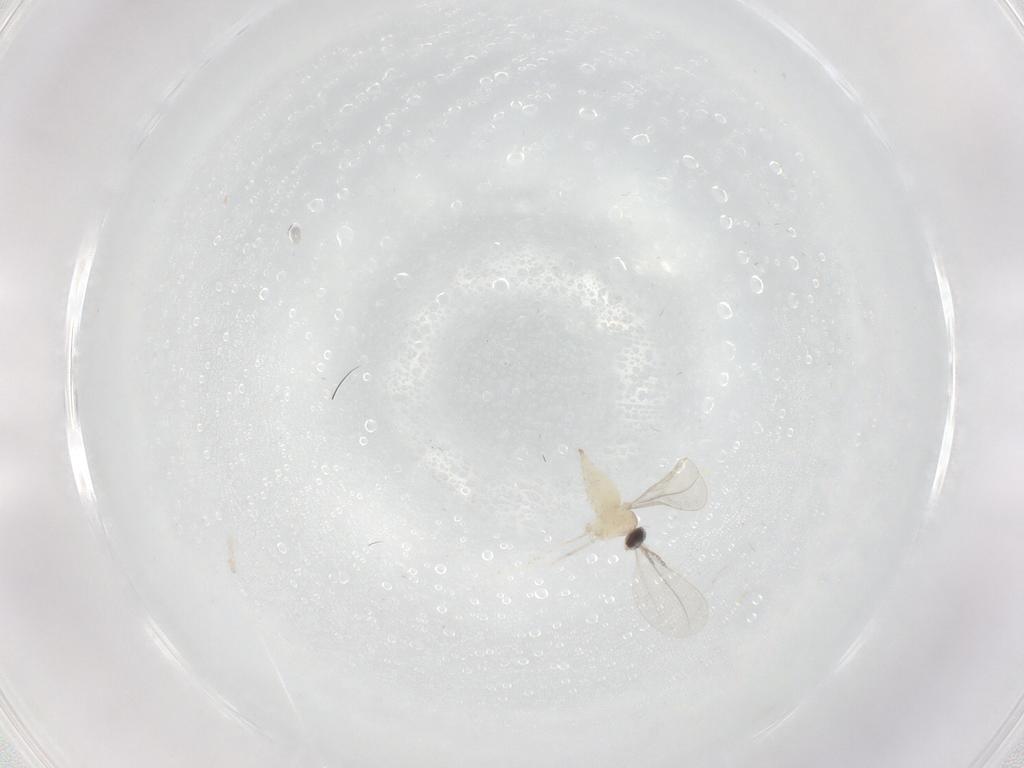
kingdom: Animalia
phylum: Arthropoda
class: Insecta
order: Diptera
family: Cecidomyiidae
